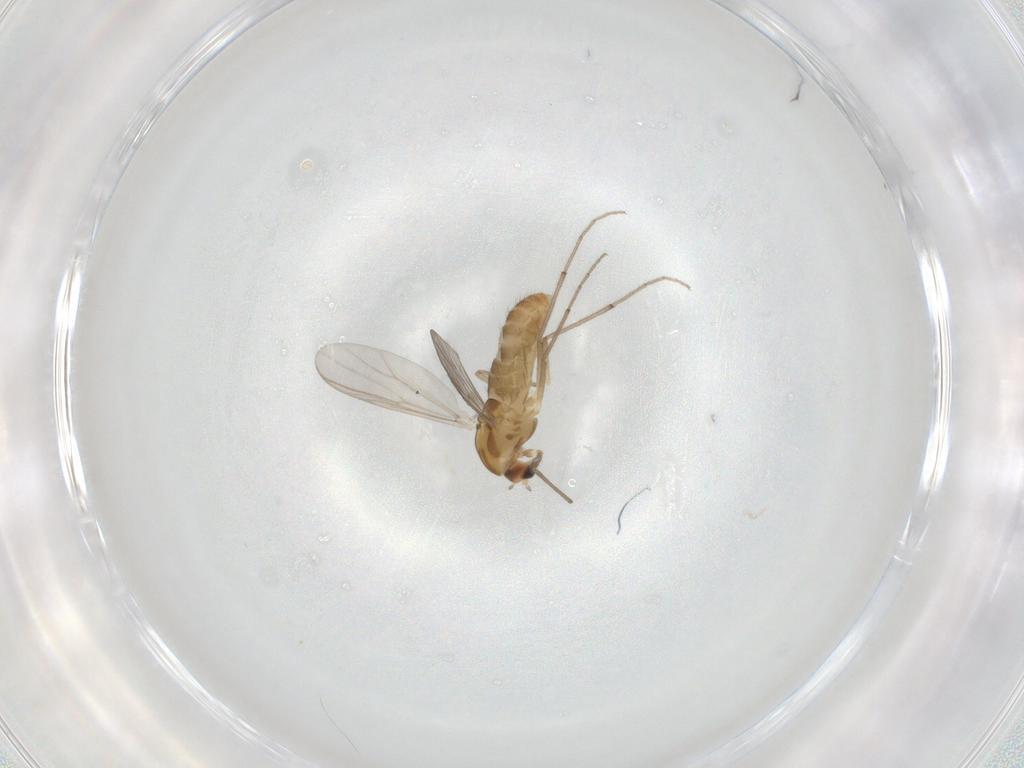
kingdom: Animalia
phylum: Arthropoda
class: Insecta
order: Diptera
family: Chironomidae
